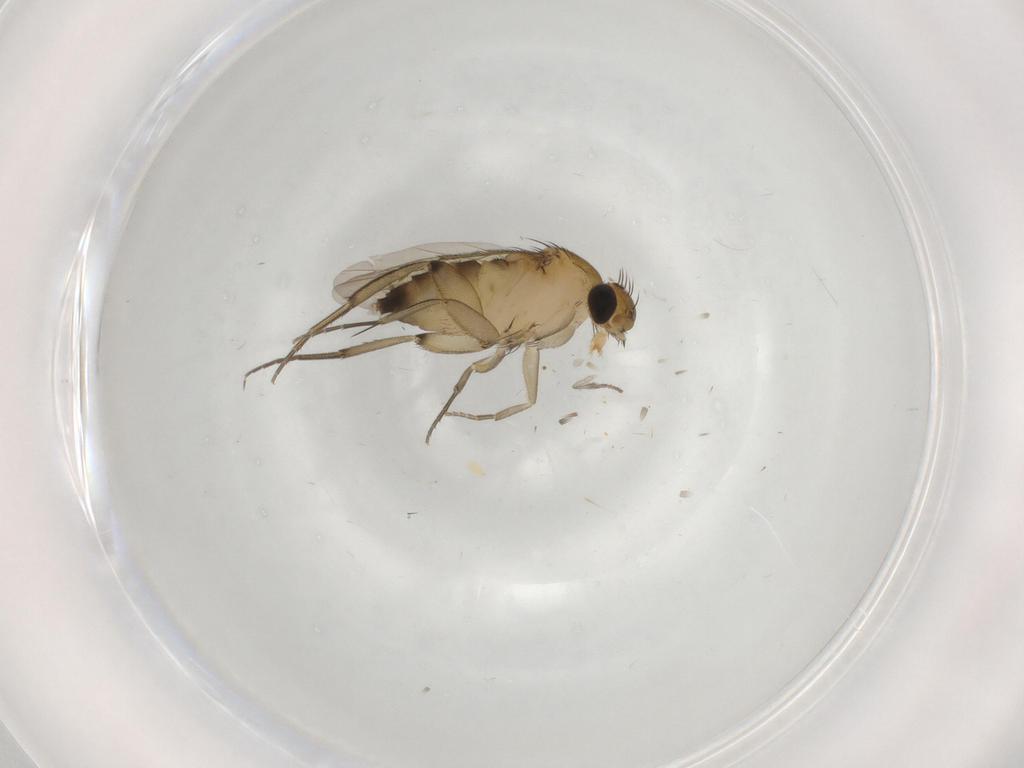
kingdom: Animalia
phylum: Arthropoda
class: Insecta
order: Diptera
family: Phoridae
